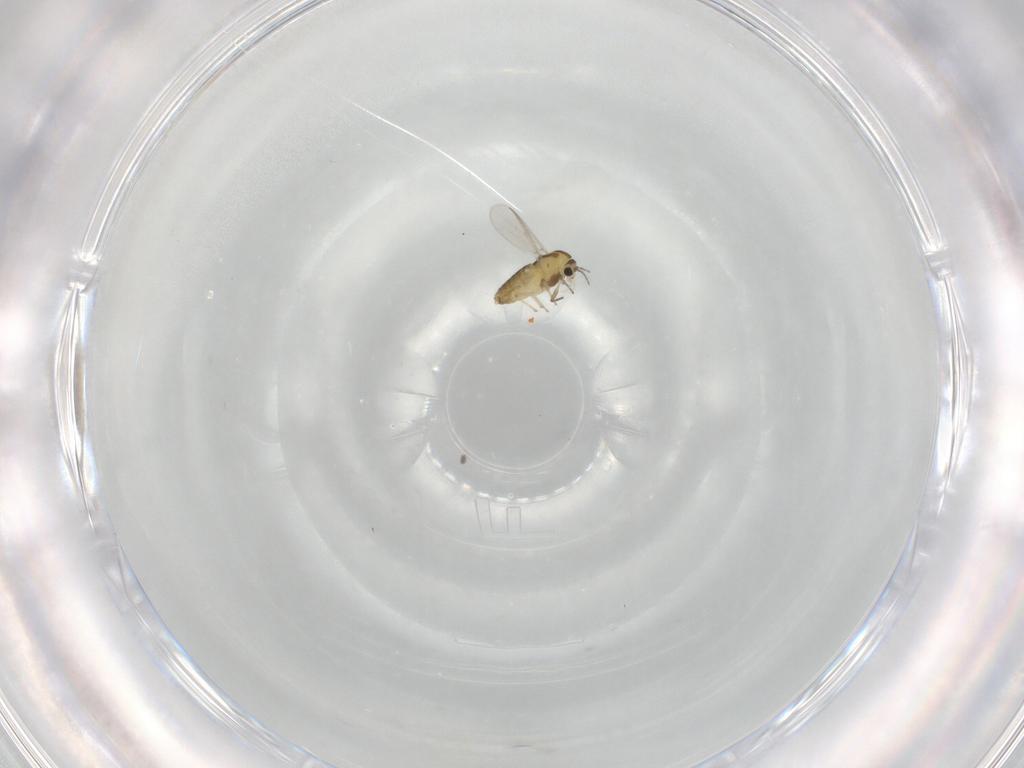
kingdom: Animalia
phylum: Arthropoda
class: Insecta
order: Diptera
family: Chironomidae
